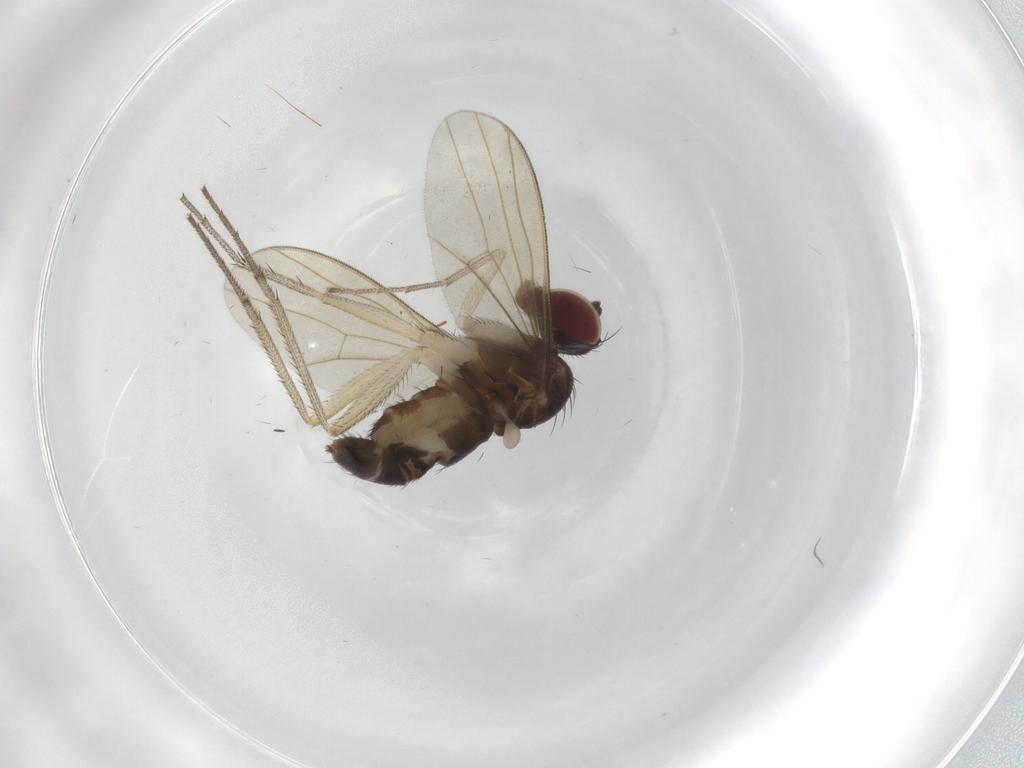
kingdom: Animalia
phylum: Arthropoda
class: Insecta
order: Diptera
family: Dolichopodidae
